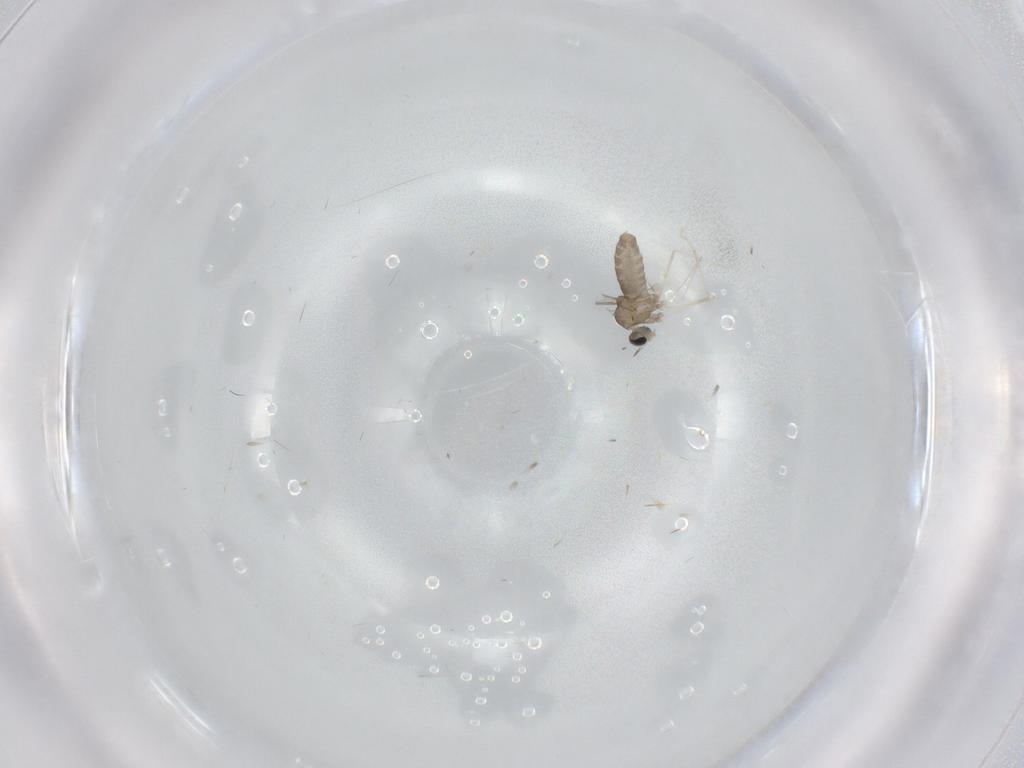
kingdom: Animalia
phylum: Arthropoda
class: Insecta
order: Diptera
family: Cecidomyiidae
